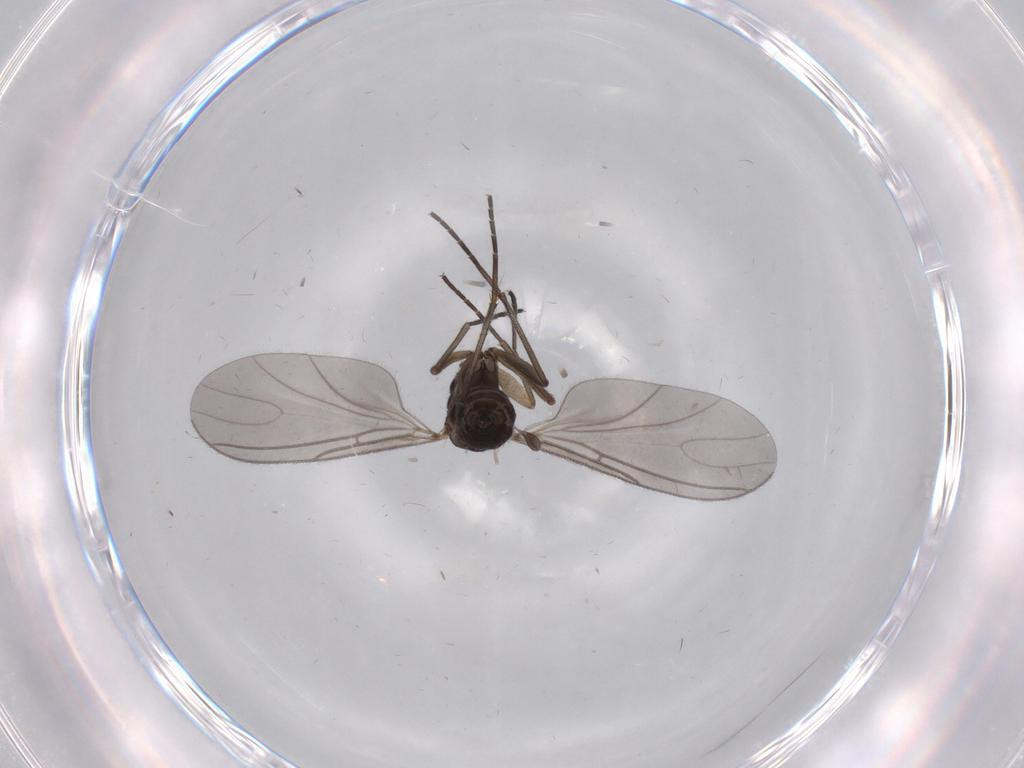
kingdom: Animalia
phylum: Arthropoda
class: Insecta
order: Diptera
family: Sciaridae
